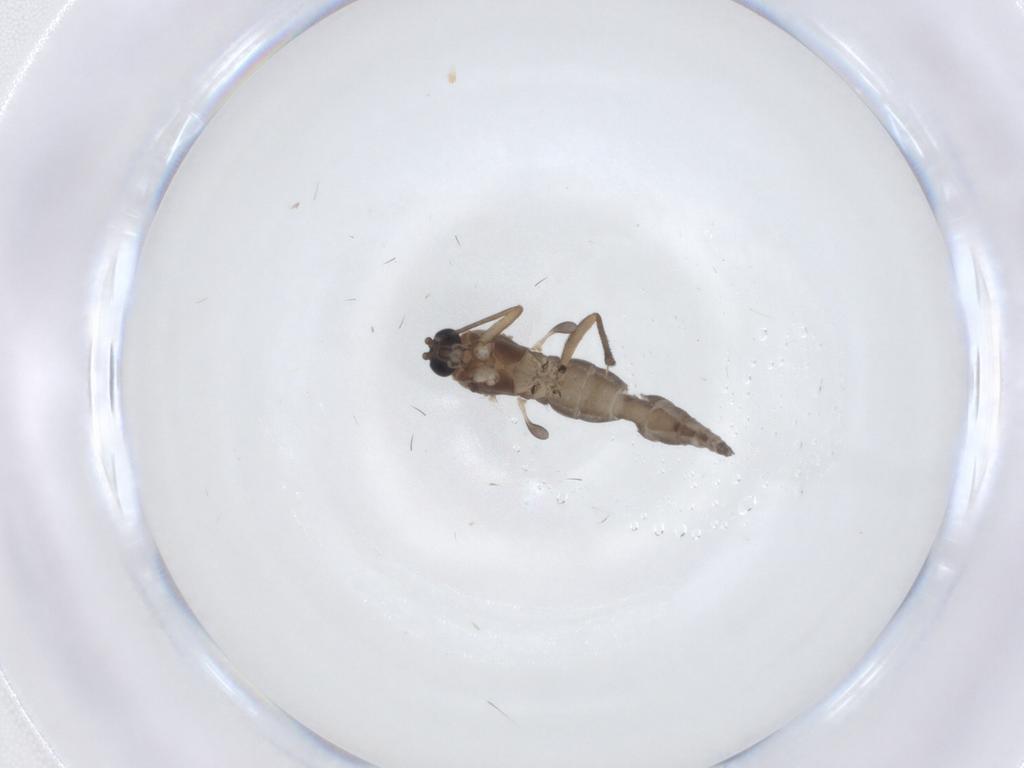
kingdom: Animalia
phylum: Arthropoda
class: Insecta
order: Diptera
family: Sciaridae
